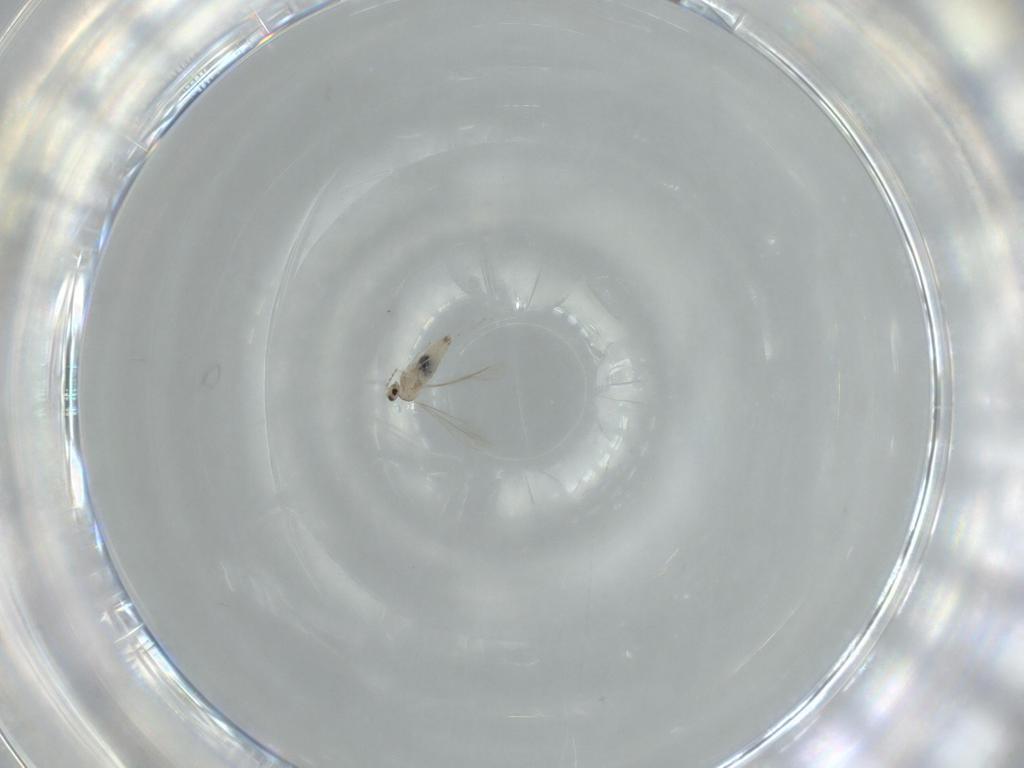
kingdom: Animalia
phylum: Arthropoda
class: Insecta
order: Diptera
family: Cecidomyiidae
